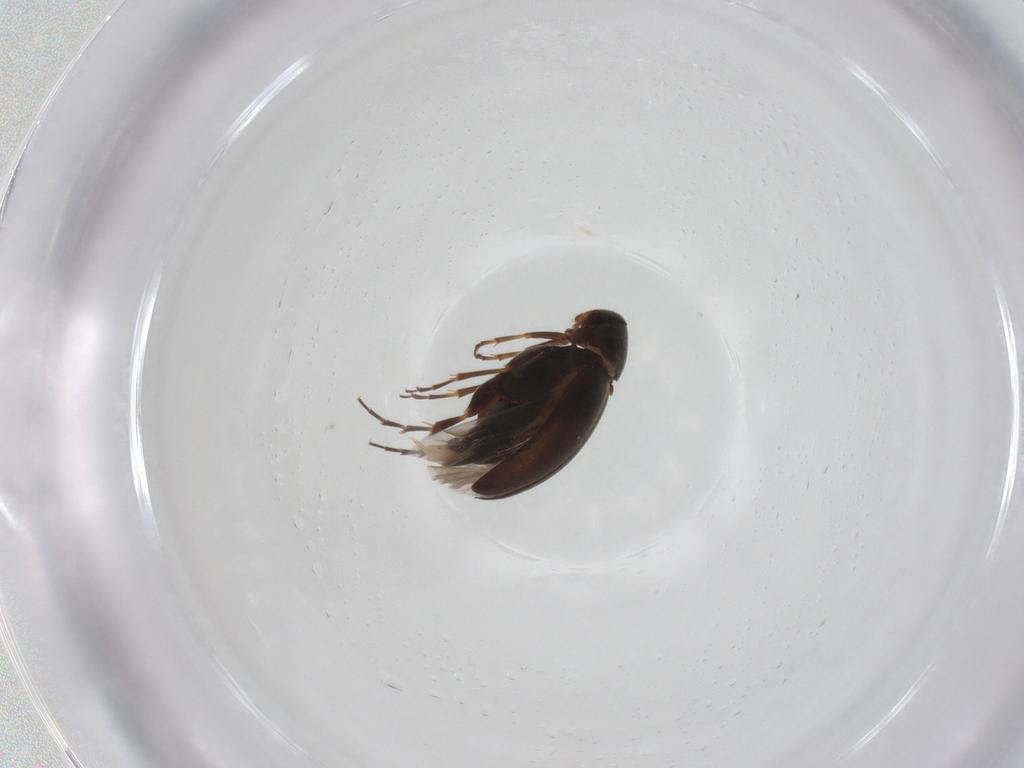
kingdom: Animalia
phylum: Arthropoda
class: Insecta
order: Coleoptera
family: Scraptiidae
